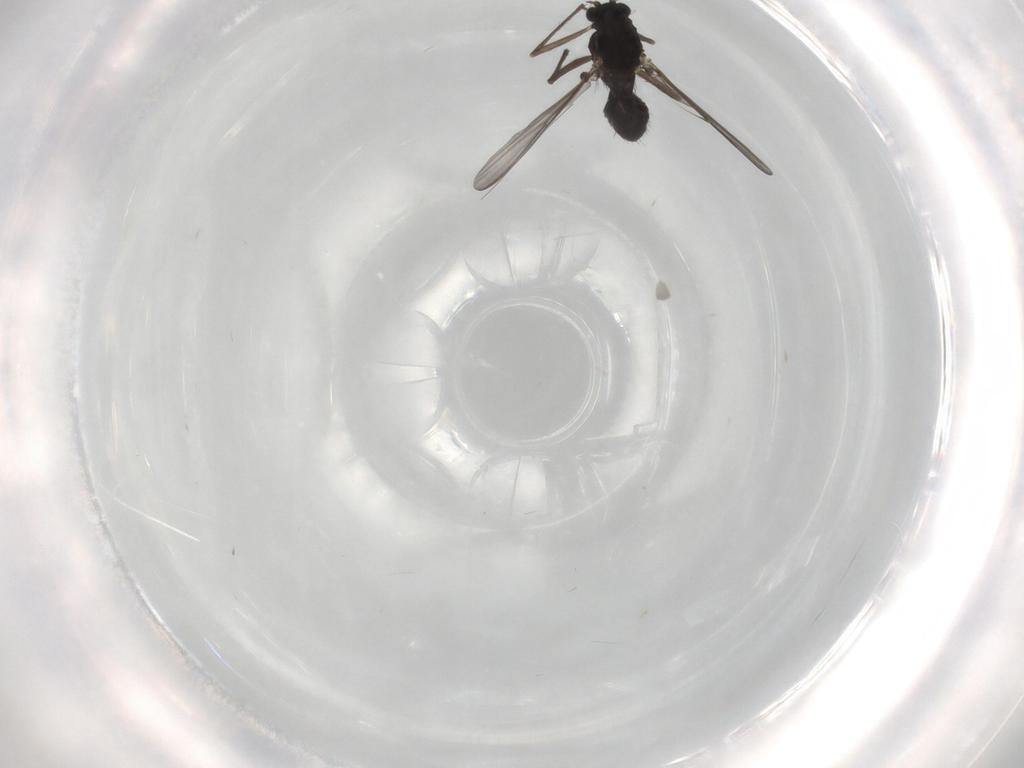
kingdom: Animalia
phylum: Arthropoda
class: Insecta
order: Diptera
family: Chironomidae
